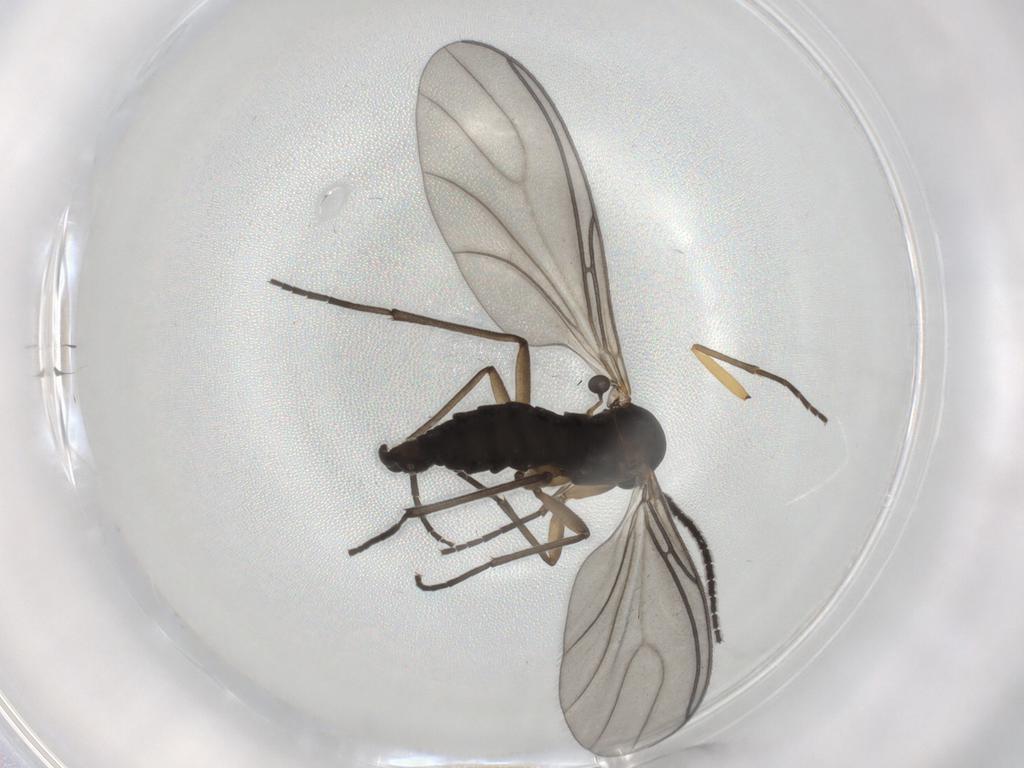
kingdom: Animalia
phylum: Arthropoda
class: Insecta
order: Diptera
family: Sciaridae
